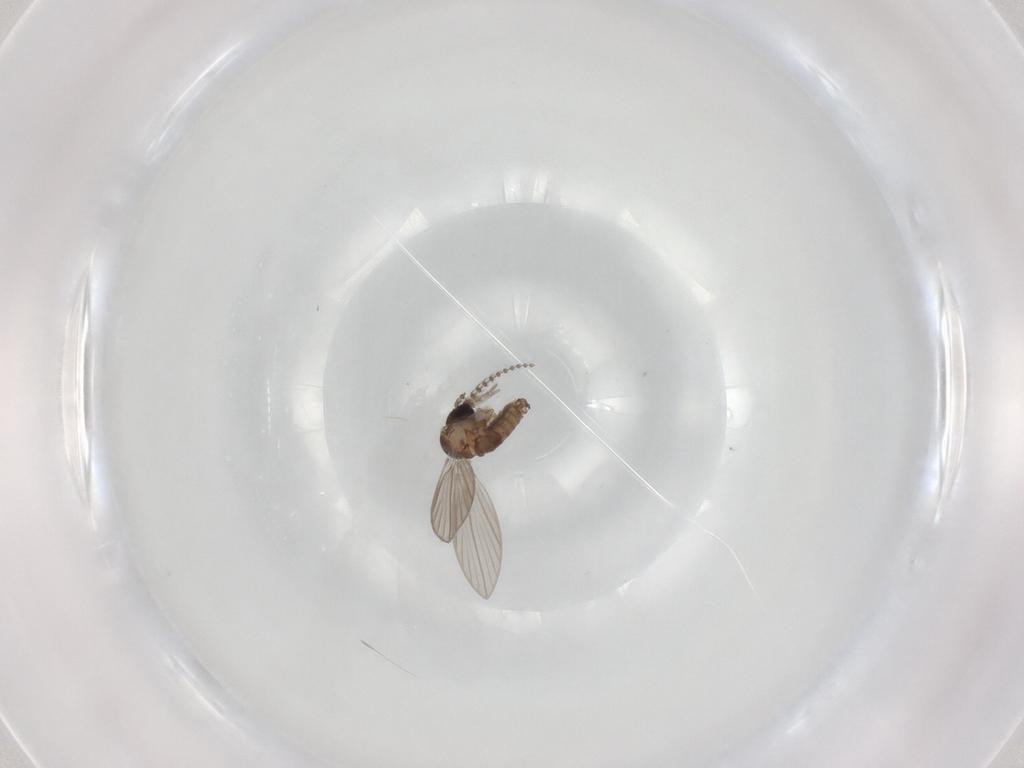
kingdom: Animalia
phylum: Arthropoda
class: Insecta
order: Diptera
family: Psychodidae
